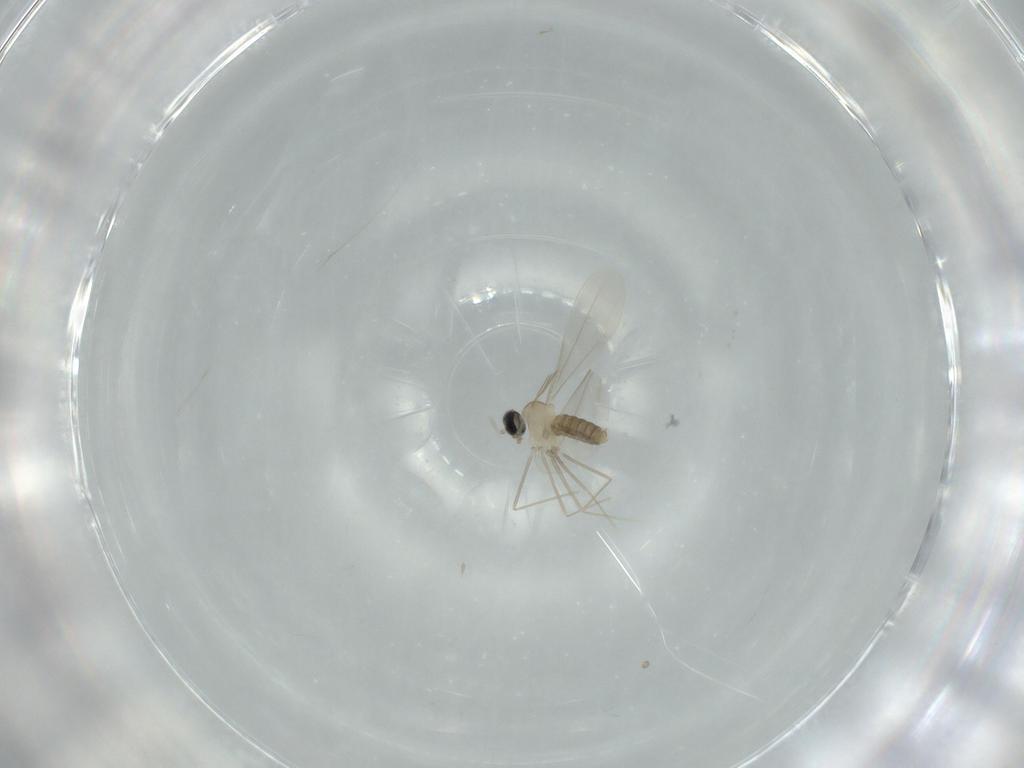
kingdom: Animalia
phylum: Arthropoda
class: Insecta
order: Diptera
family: Cecidomyiidae
